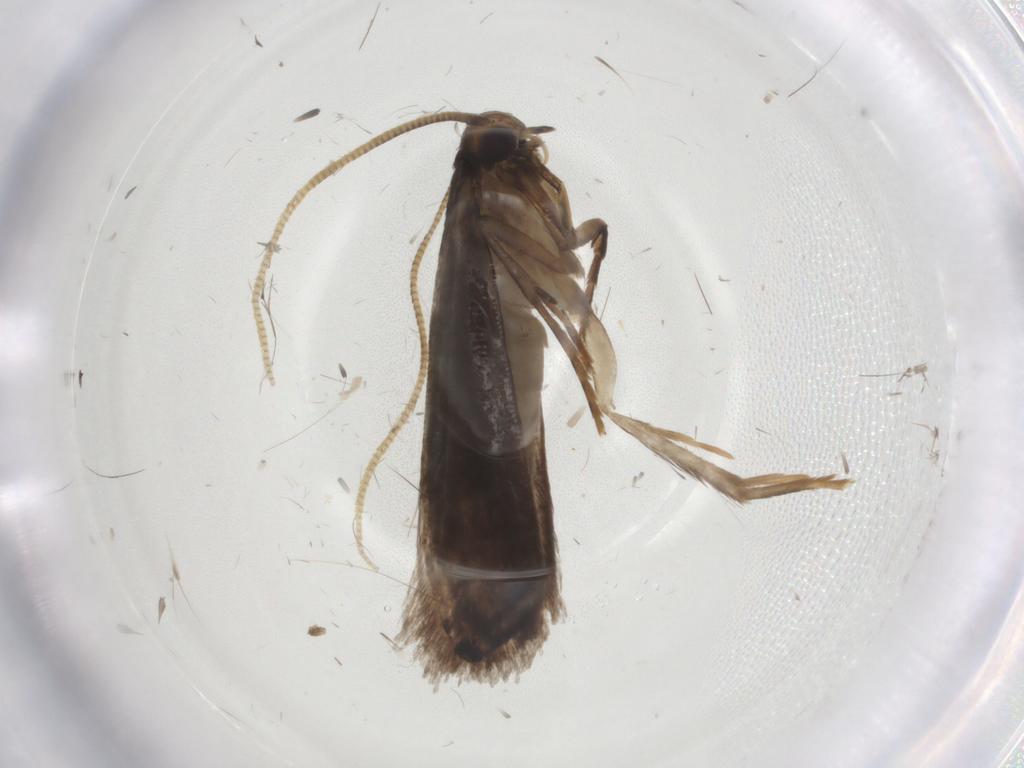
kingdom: Animalia
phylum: Arthropoda
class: Insecta
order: Lepidoptera
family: Tineidae
